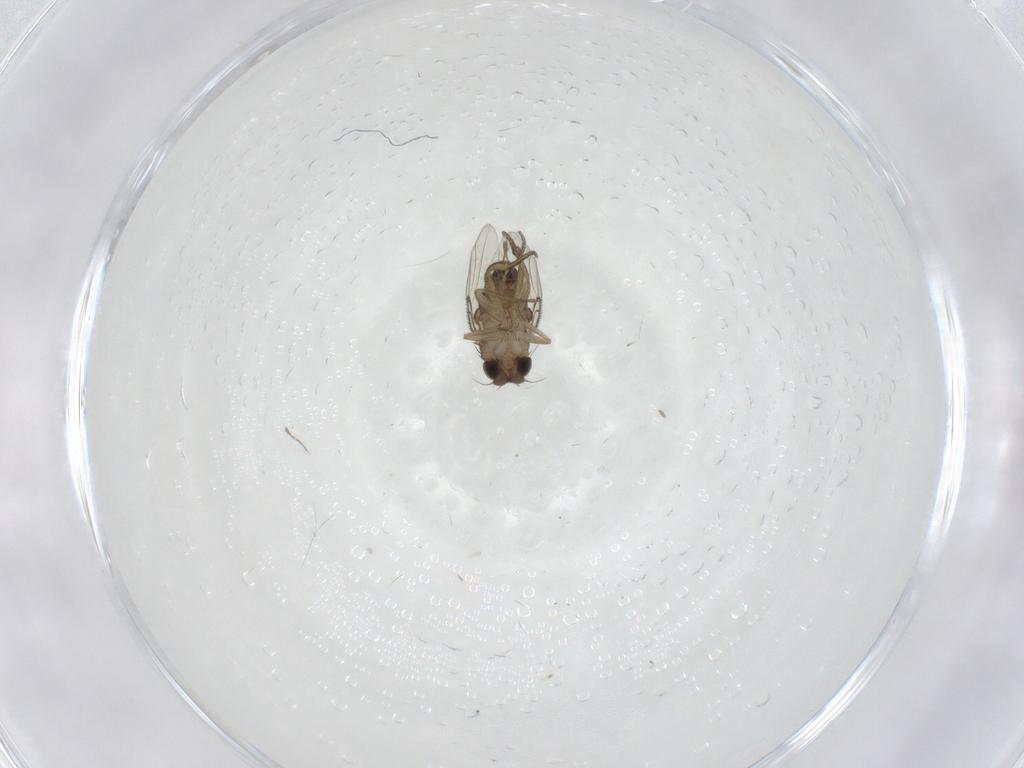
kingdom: Animalia
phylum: Arthropoda
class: Insecta
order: Diptera
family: Chironomidae
